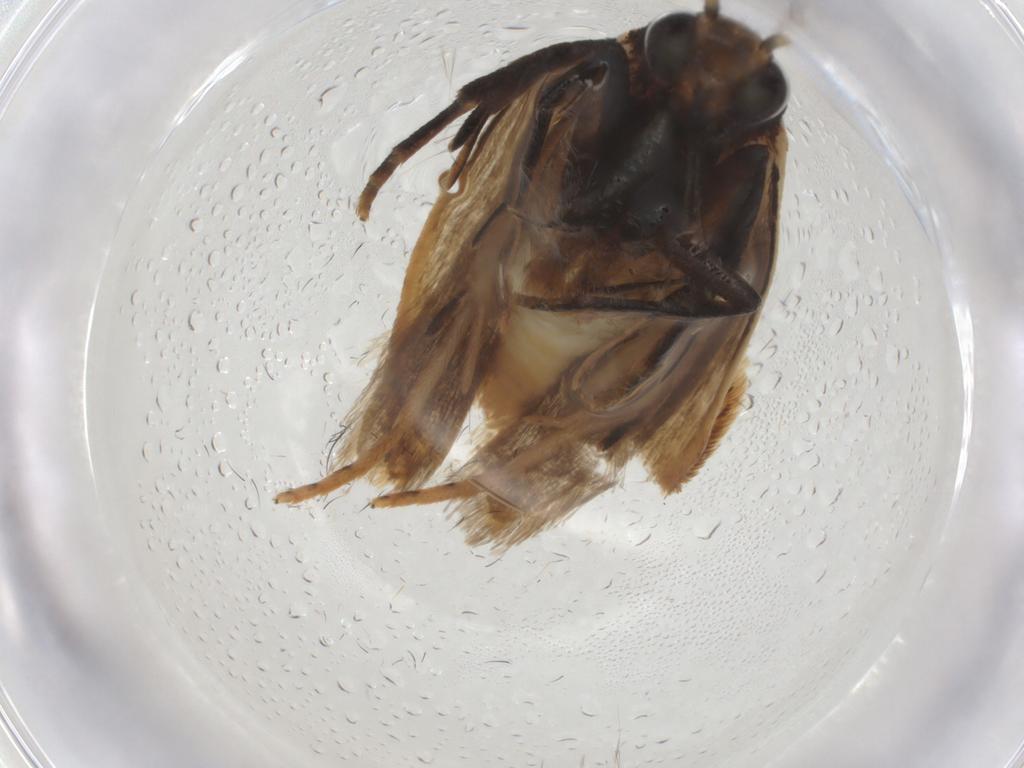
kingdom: Animalia
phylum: Arthropoda
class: Insecta
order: Lepidoptera
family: Gelechiidae
